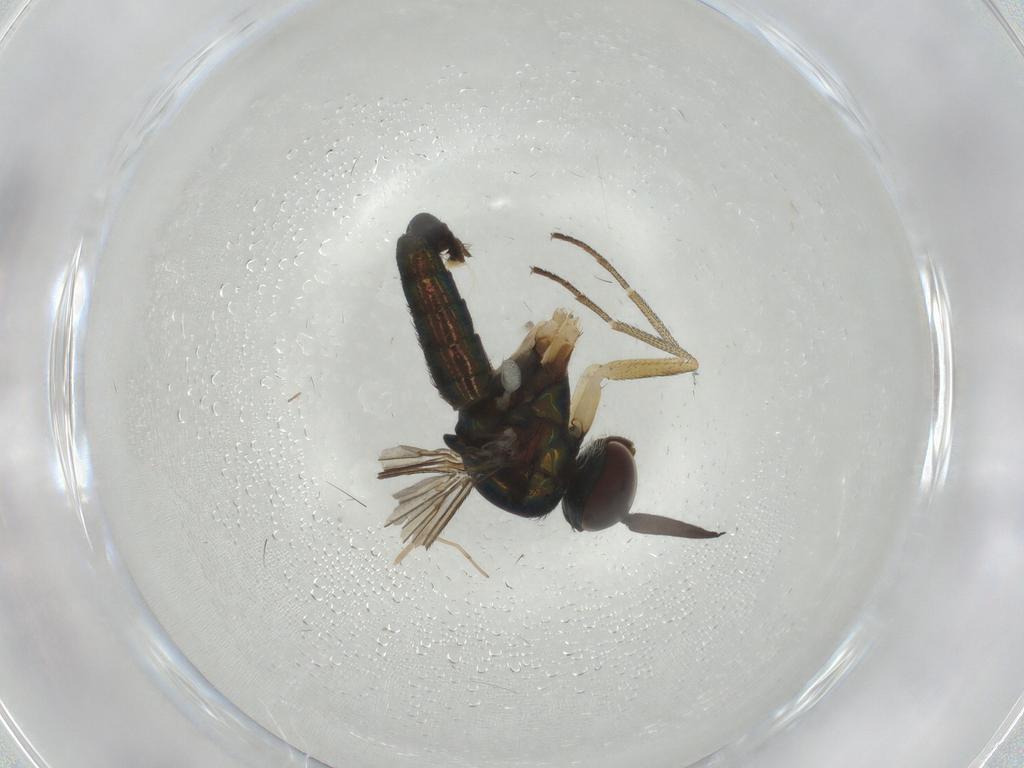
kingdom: Animalia
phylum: Arthropoda
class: Insecta
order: Diptera
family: Dolichopodidae
